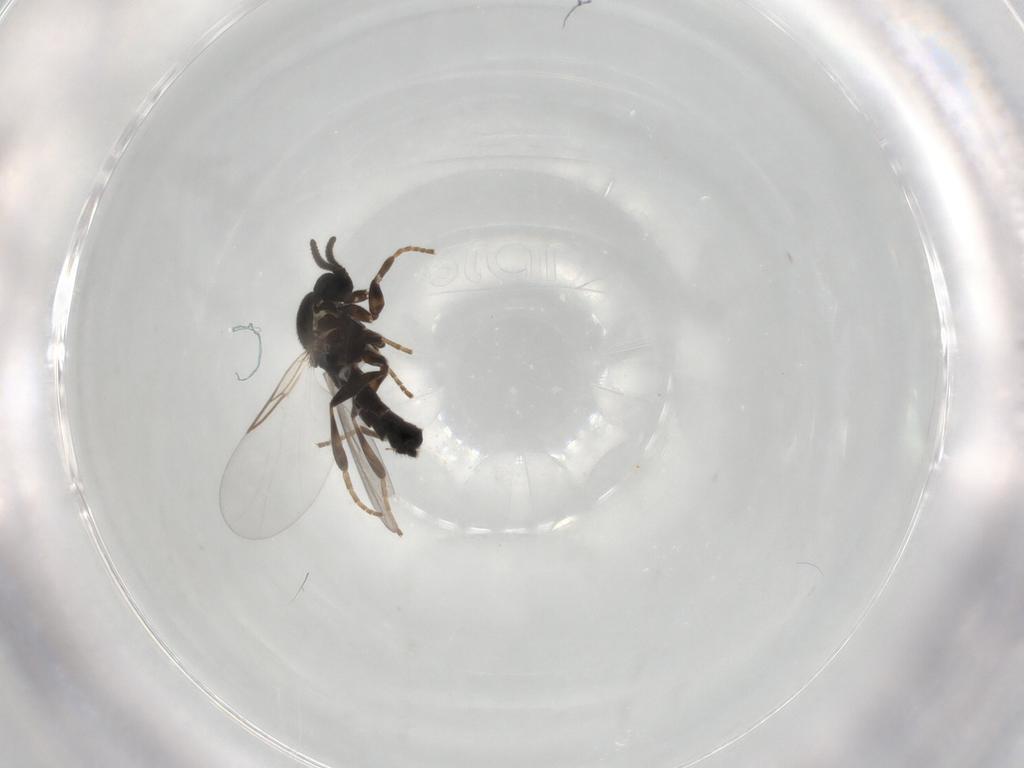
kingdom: Animalia
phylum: Arthropoda
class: Insecta
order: Diptera
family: Scatopsidae
